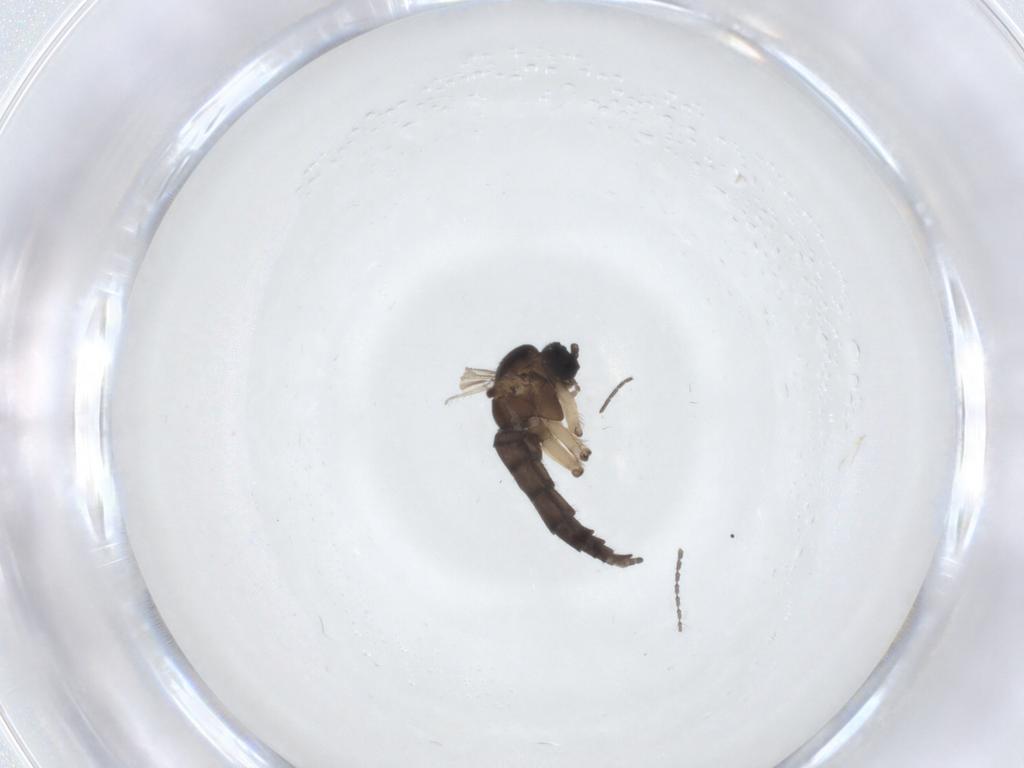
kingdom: Animalia
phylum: Arthropoda
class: Insecta
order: Diptera
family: Sciaridae
